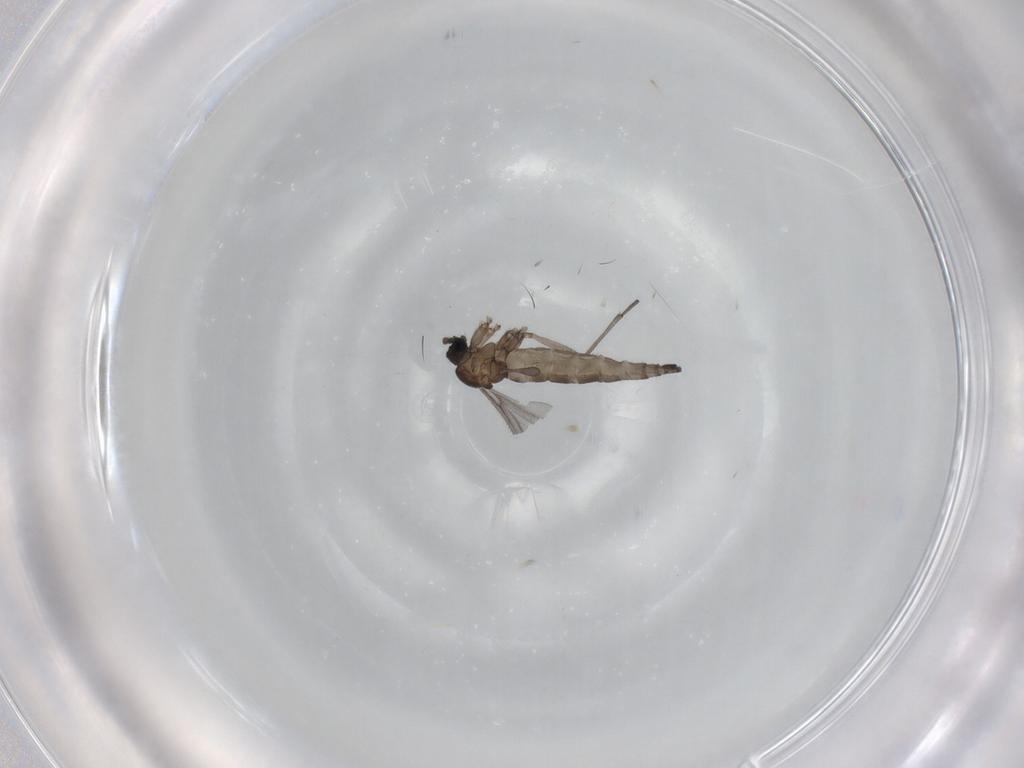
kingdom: Animalia
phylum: Arthropoda
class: Insecta
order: Diptera
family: Sciaridae
